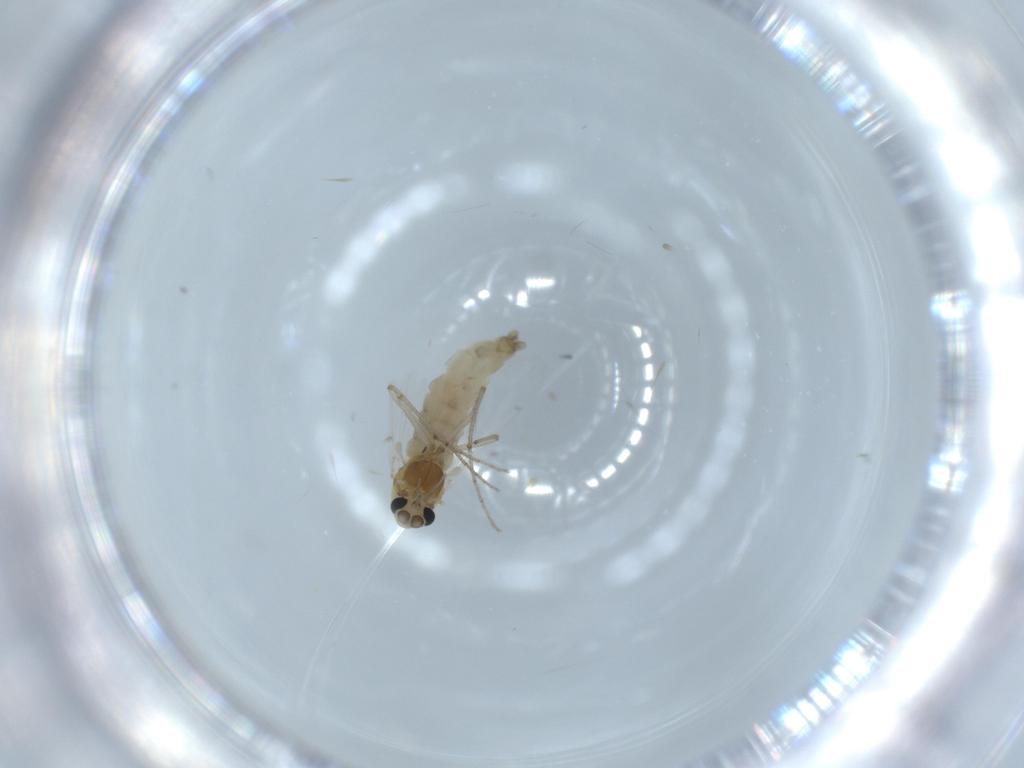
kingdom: Animalia
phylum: Arthropoda
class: Insecta
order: Diptera
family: Chironomidae
